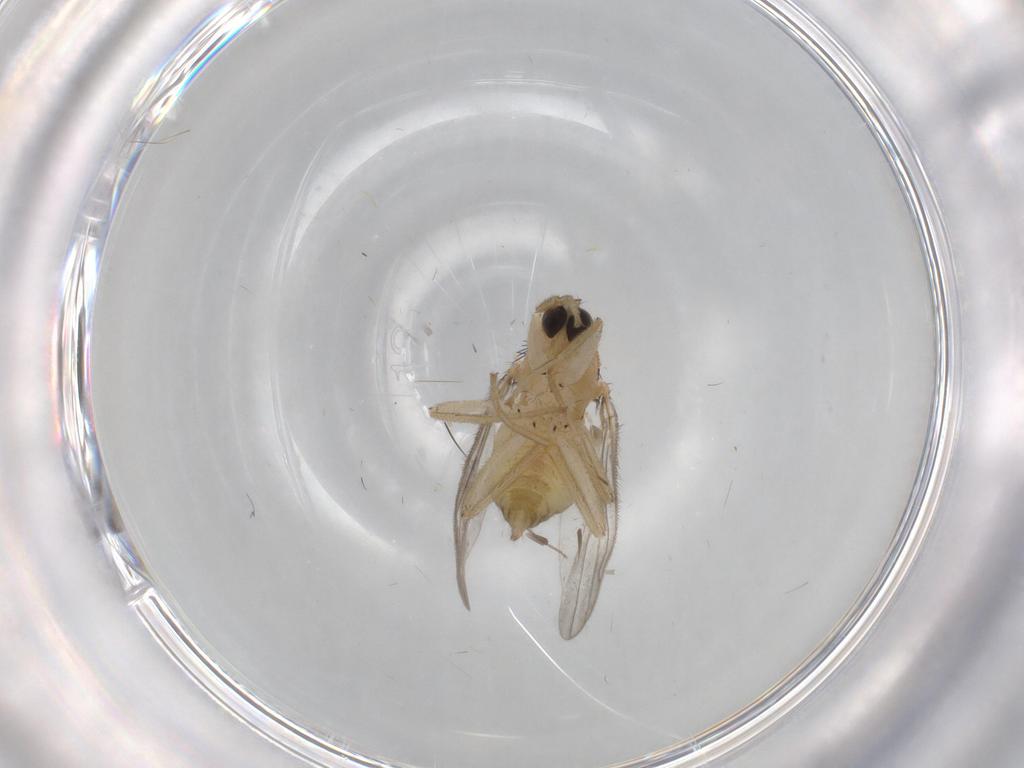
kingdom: Animalia
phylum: Arthropoda
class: Insecta
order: Diptera
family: Hybotidae
